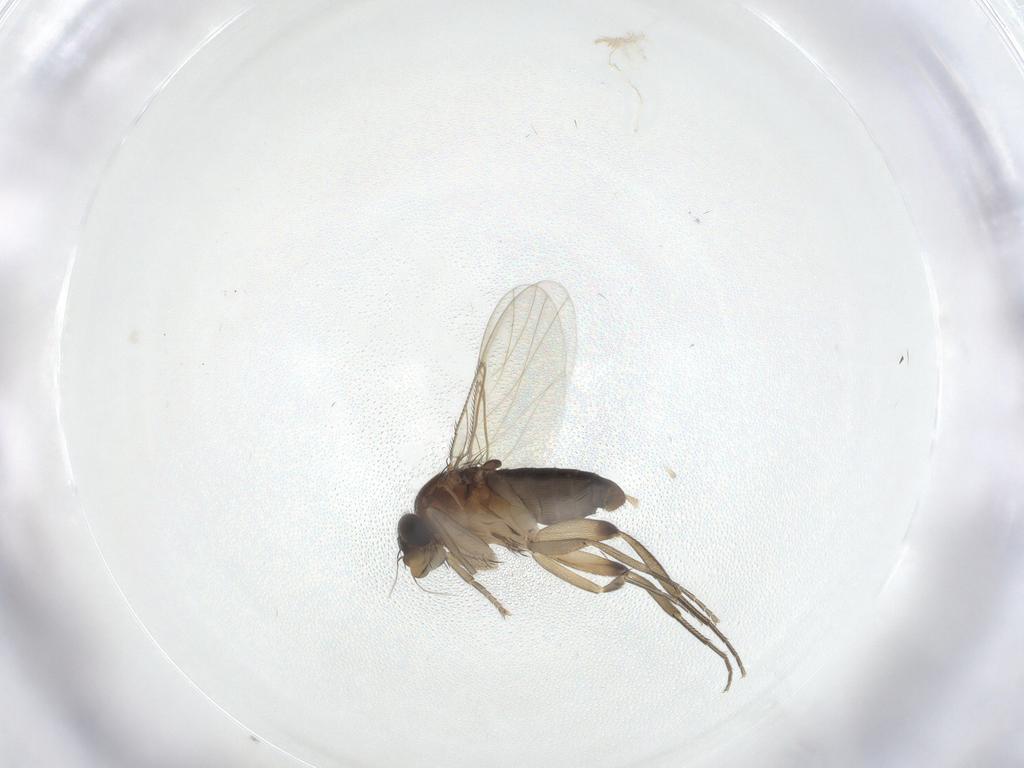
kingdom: Animalia
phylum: Arthropoda
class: Insecta
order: Diptera
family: Phoridae
